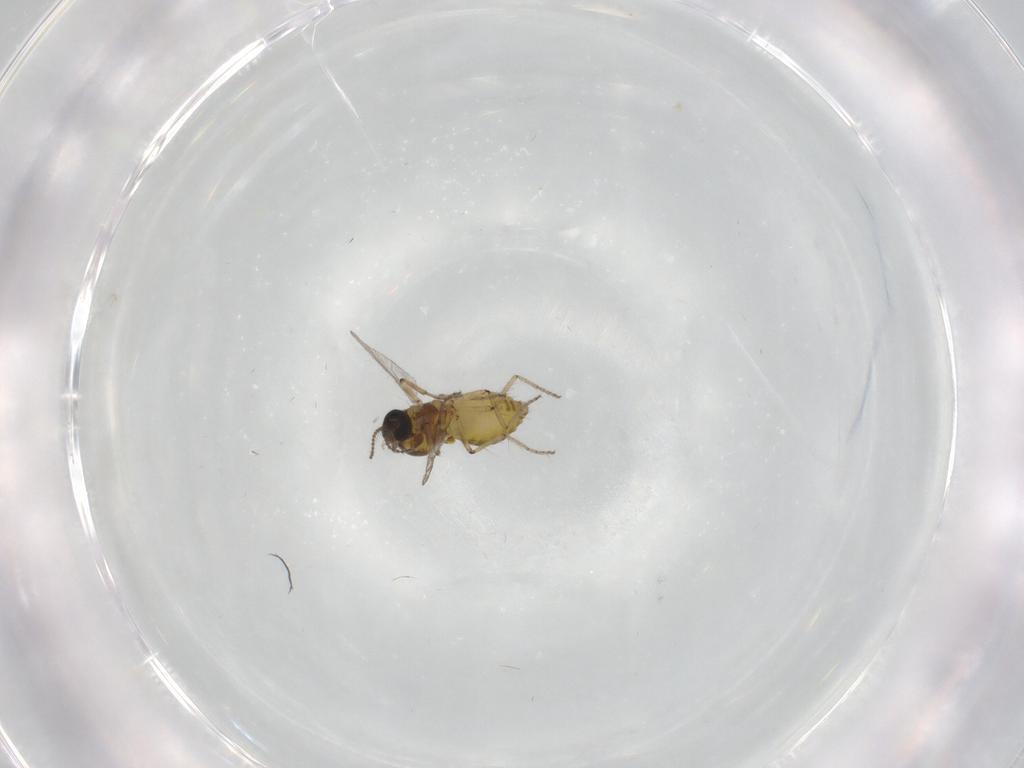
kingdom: Animalia
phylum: Arthropoda
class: Insecta
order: Diptera
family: Ceratopogonidae
